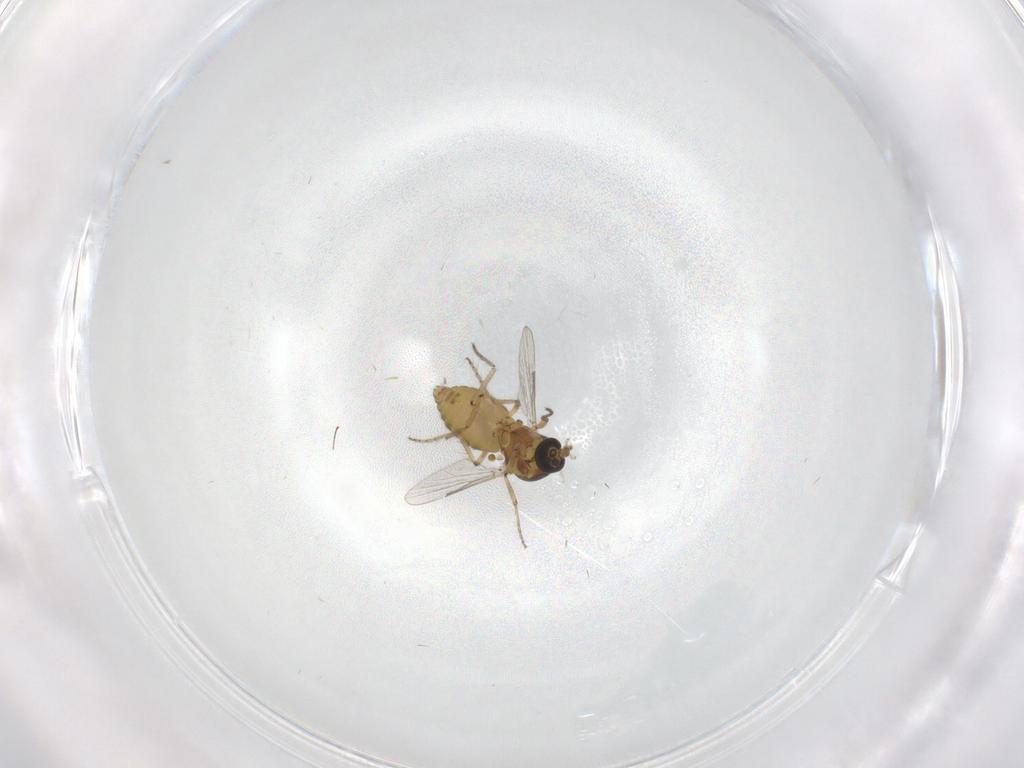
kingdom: Animalia
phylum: Arthropoda
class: Insecta
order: Diptera
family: Ceratopogonidae
